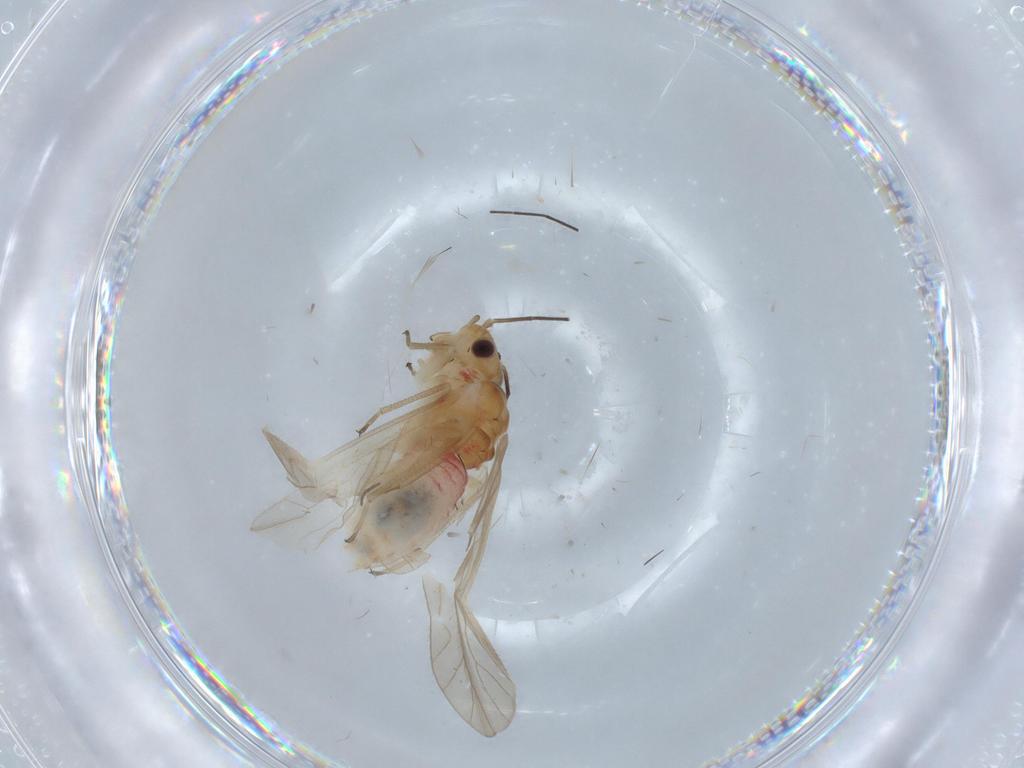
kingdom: Animalia
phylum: Arthropoda
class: Insecta
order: Psocodea
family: Caeciliusidae
